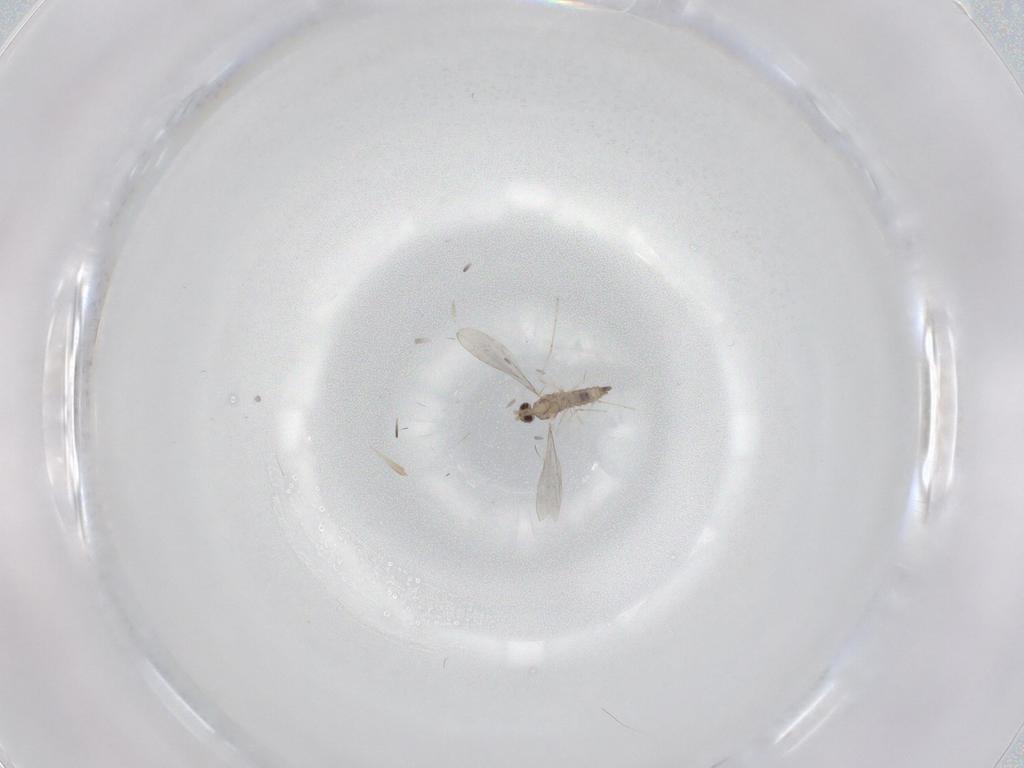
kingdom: Animalia
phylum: Arthropoda
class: Insecta
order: Diptera
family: Cecidomyiidae
